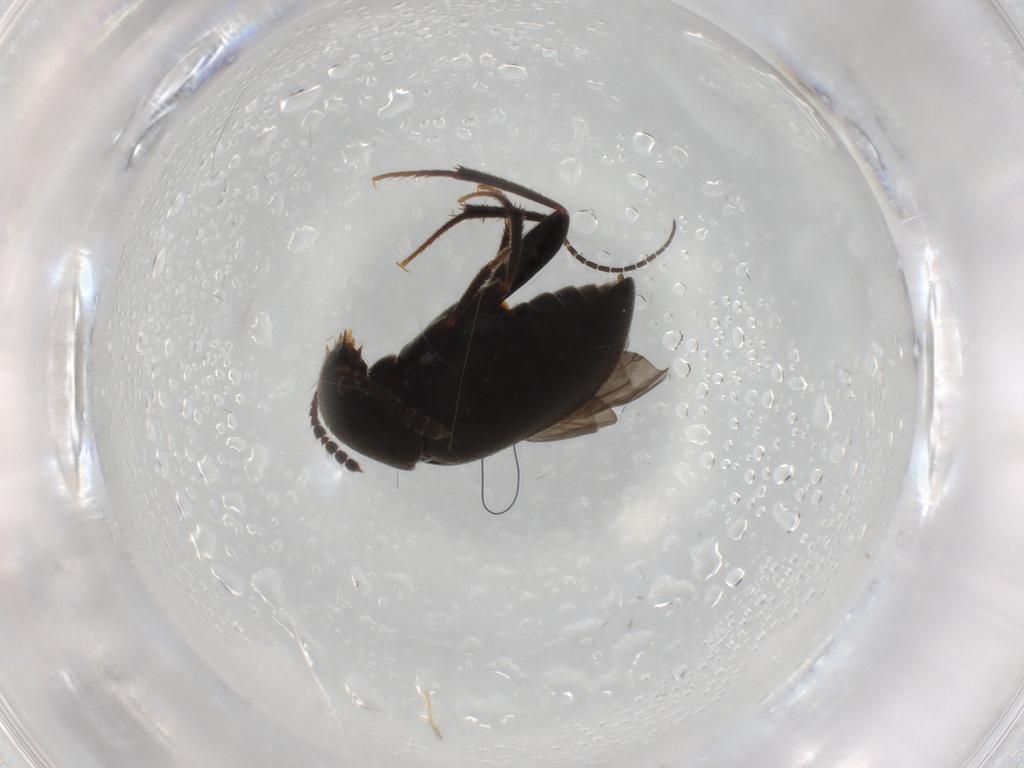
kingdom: Animalia
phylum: Arthropoda
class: Insecta
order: Coleoptera
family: Leiodidae
